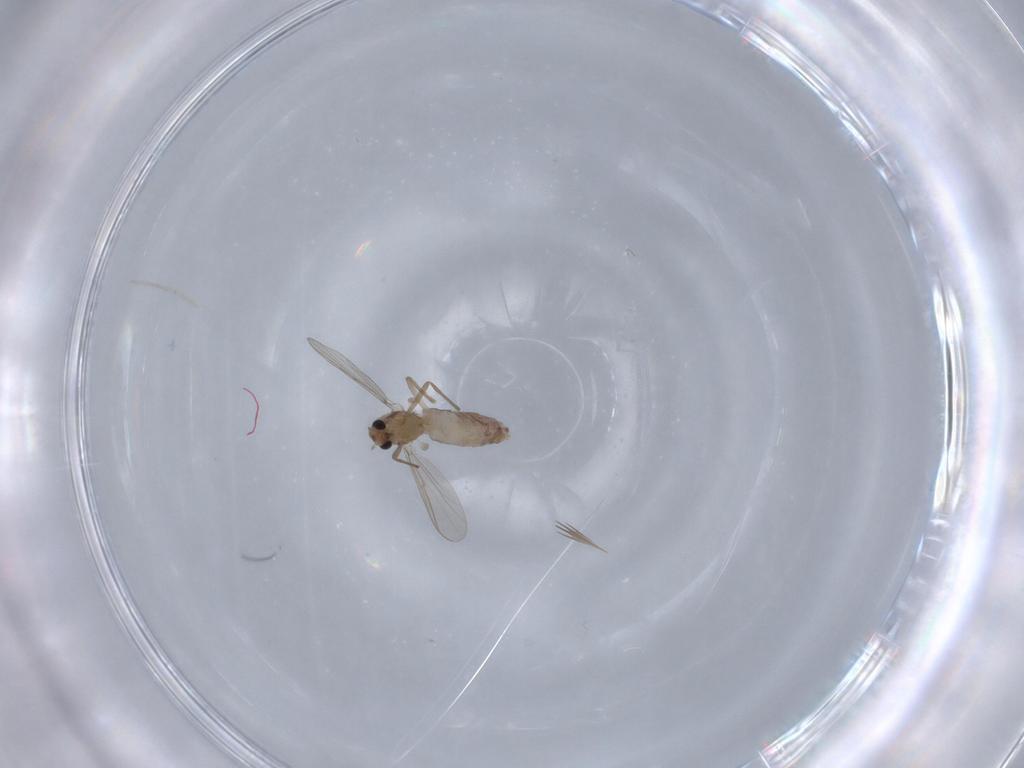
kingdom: Animalia
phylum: Arthropoda
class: Insecta
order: Diptera
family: Chironomidae
